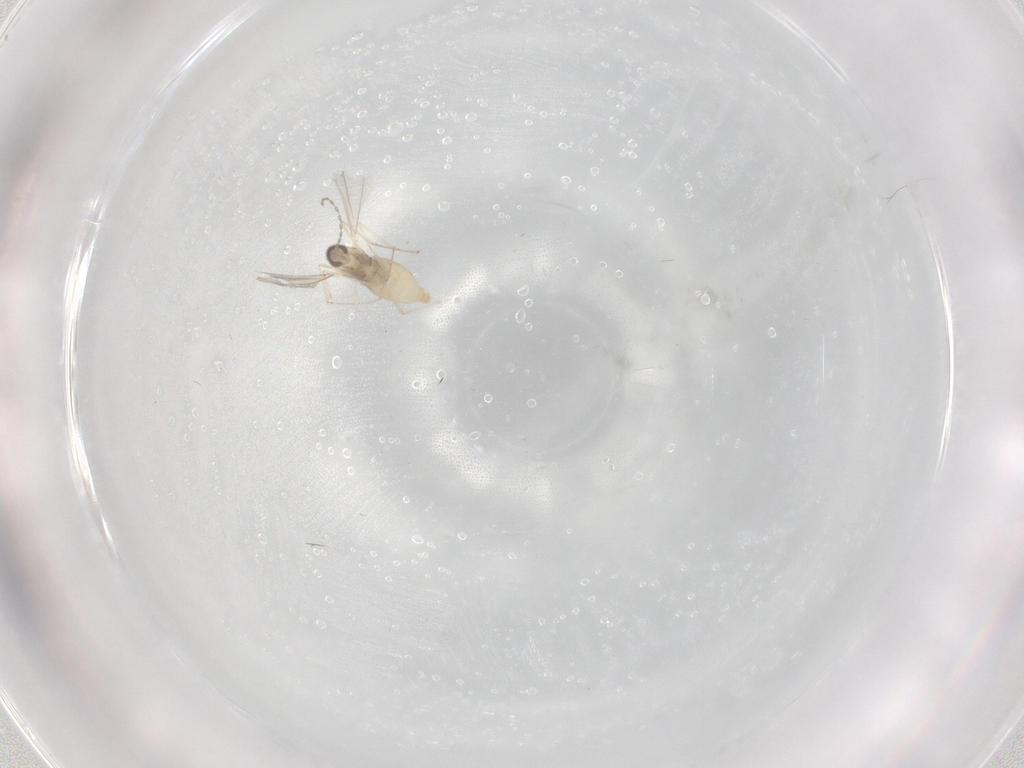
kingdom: Animalia
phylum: Arthropoda
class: Insecta
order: Diptera
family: Cecidomyiidae
